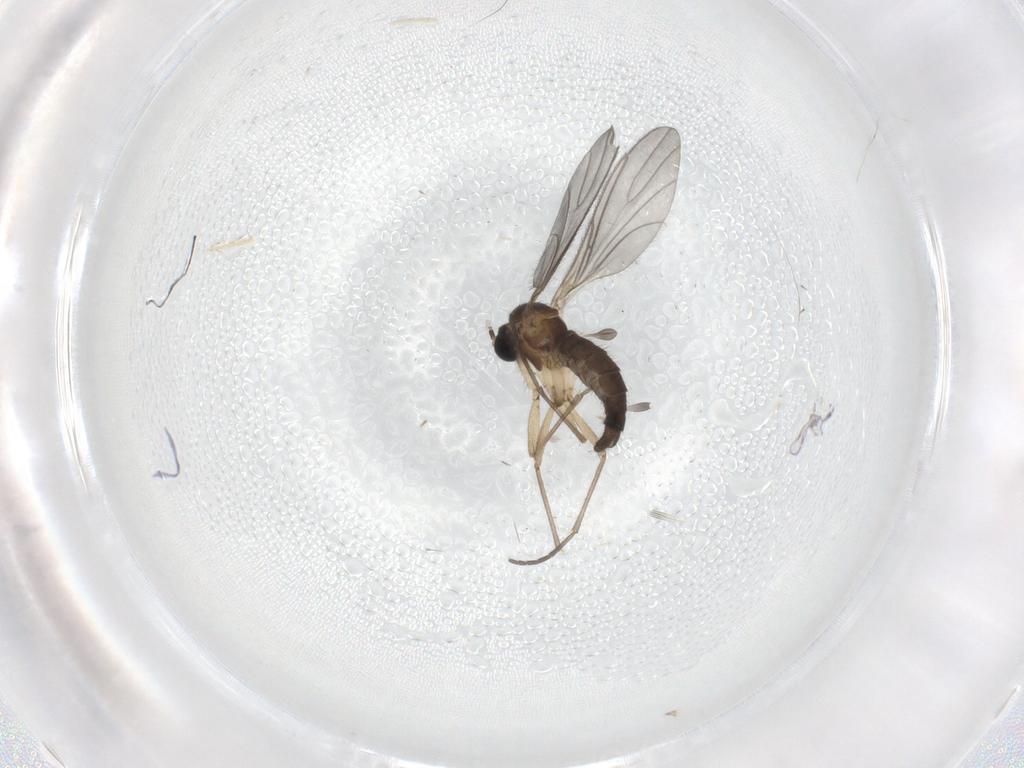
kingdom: Animalia
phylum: Arthropoda
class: Insecta
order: Diptera
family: Sciaridae
